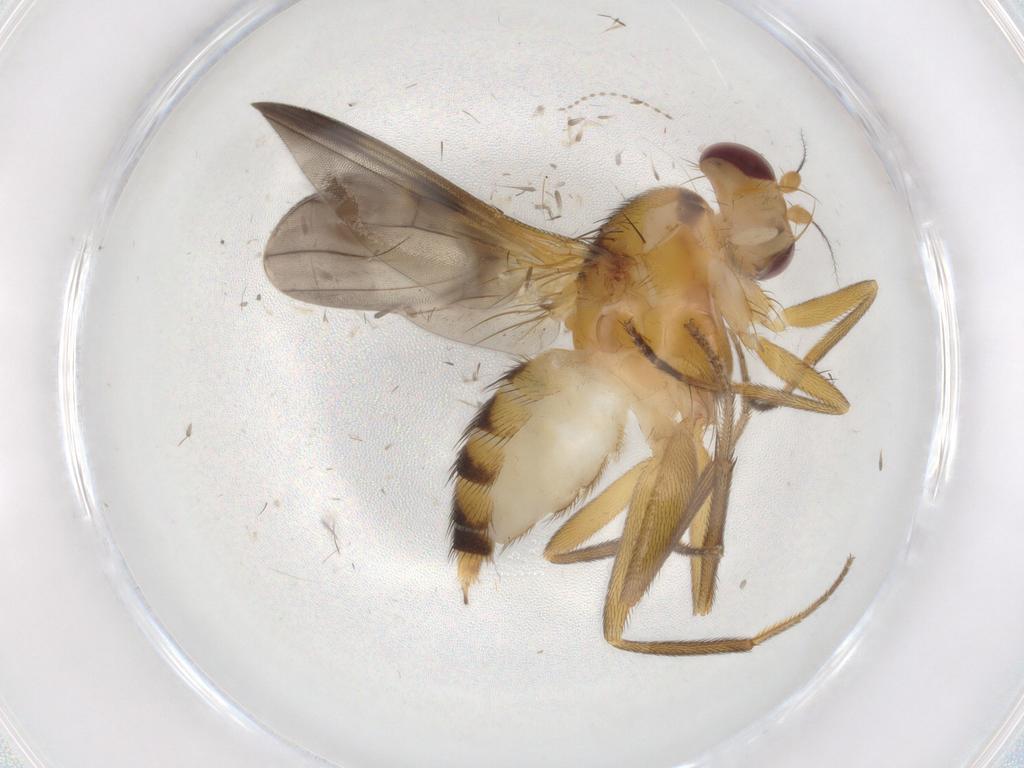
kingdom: Animalia
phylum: Arthropoda
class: Insecta
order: Diptera
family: Clusiidae
